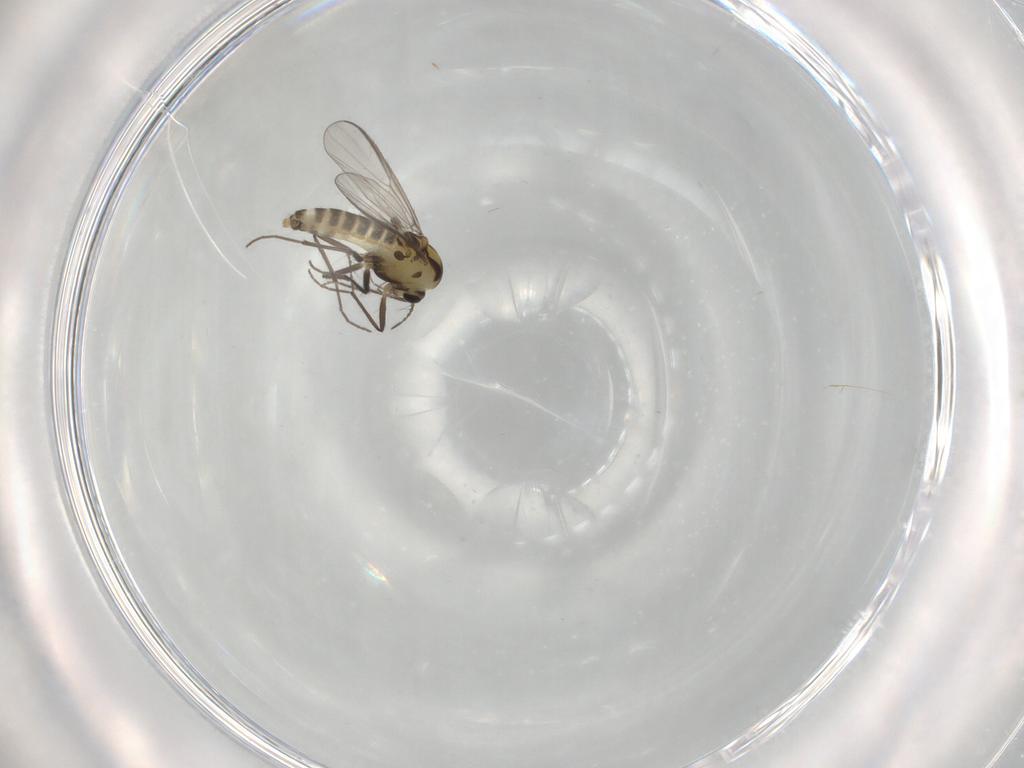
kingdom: Animalia
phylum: Arthropoda
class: Insecta
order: Diptera
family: Chironomidae
